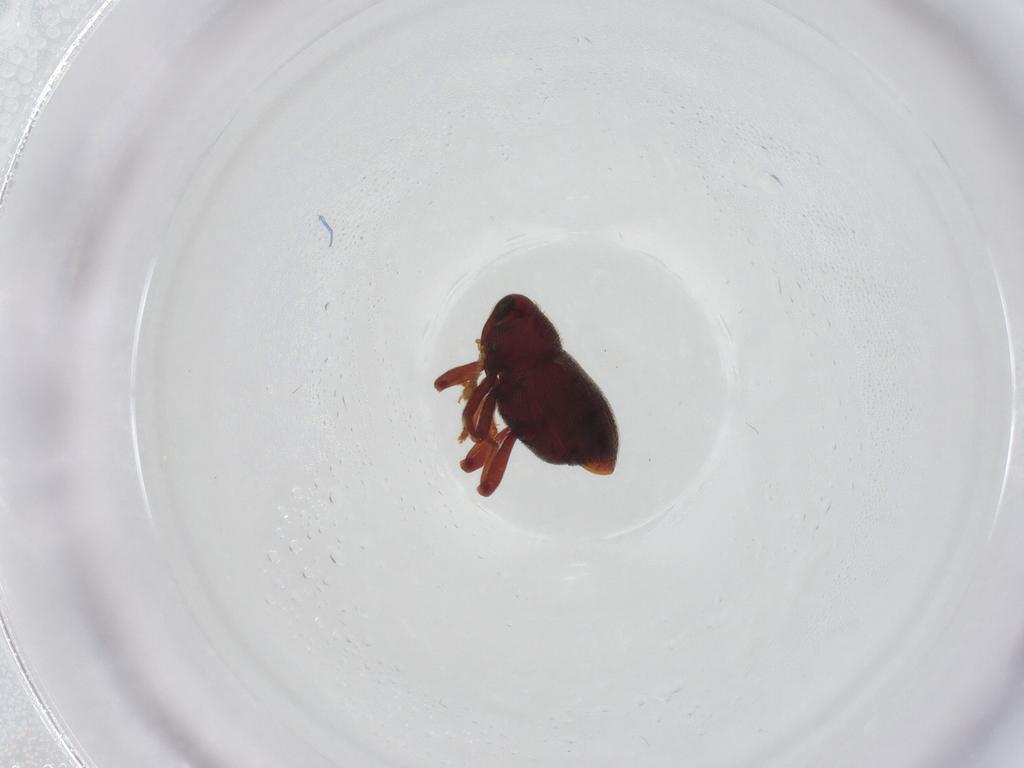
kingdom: Animalia
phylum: Arthropoda
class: Insecta
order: Coleoptera
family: Curculionidae
